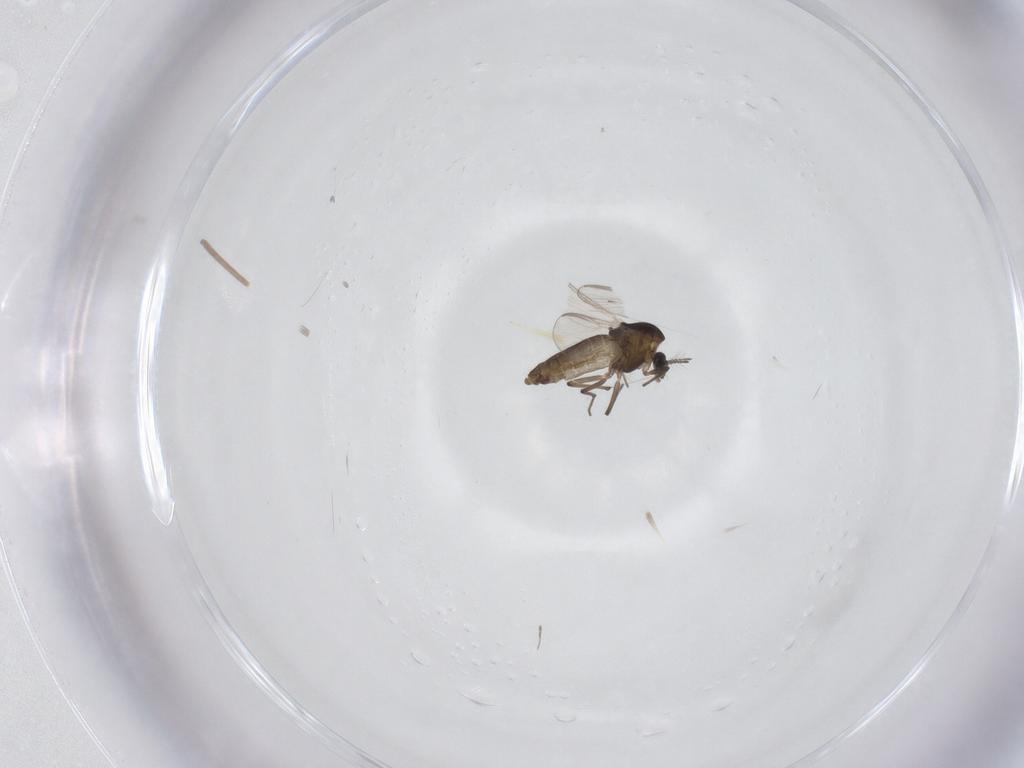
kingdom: Animalia
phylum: Arthropoda
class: Insecta
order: Diptera
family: Chironomidae
